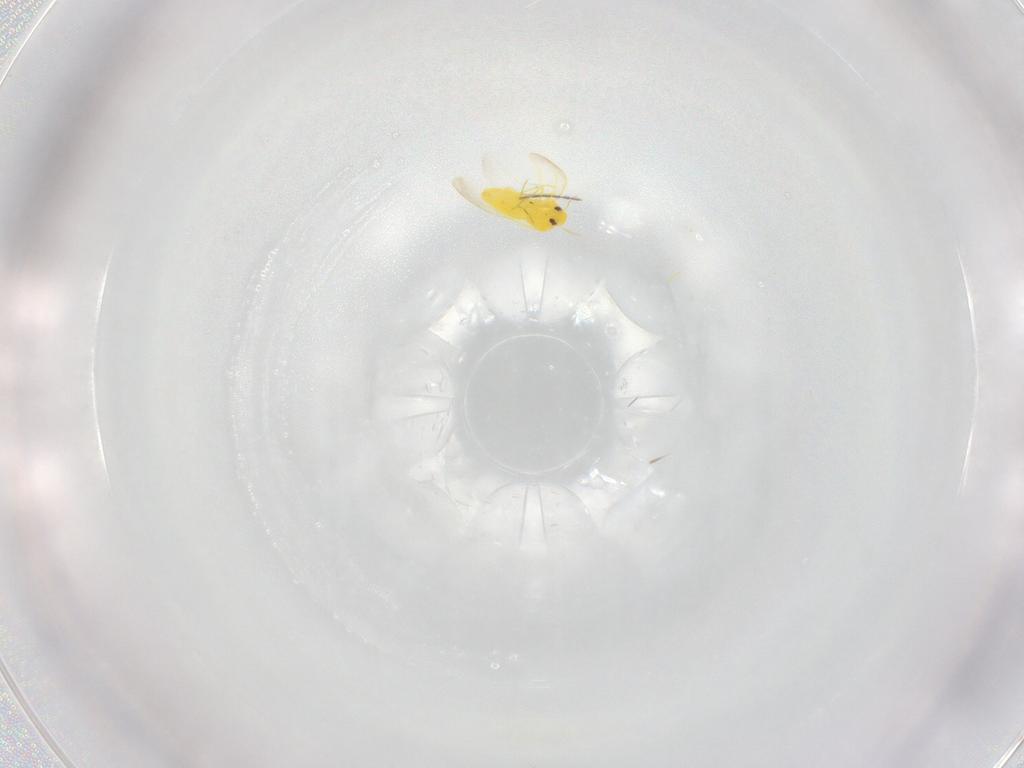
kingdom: Animalia
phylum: Arthropoda
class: Insecta
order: Hemiptera
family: Aleyrodidae
